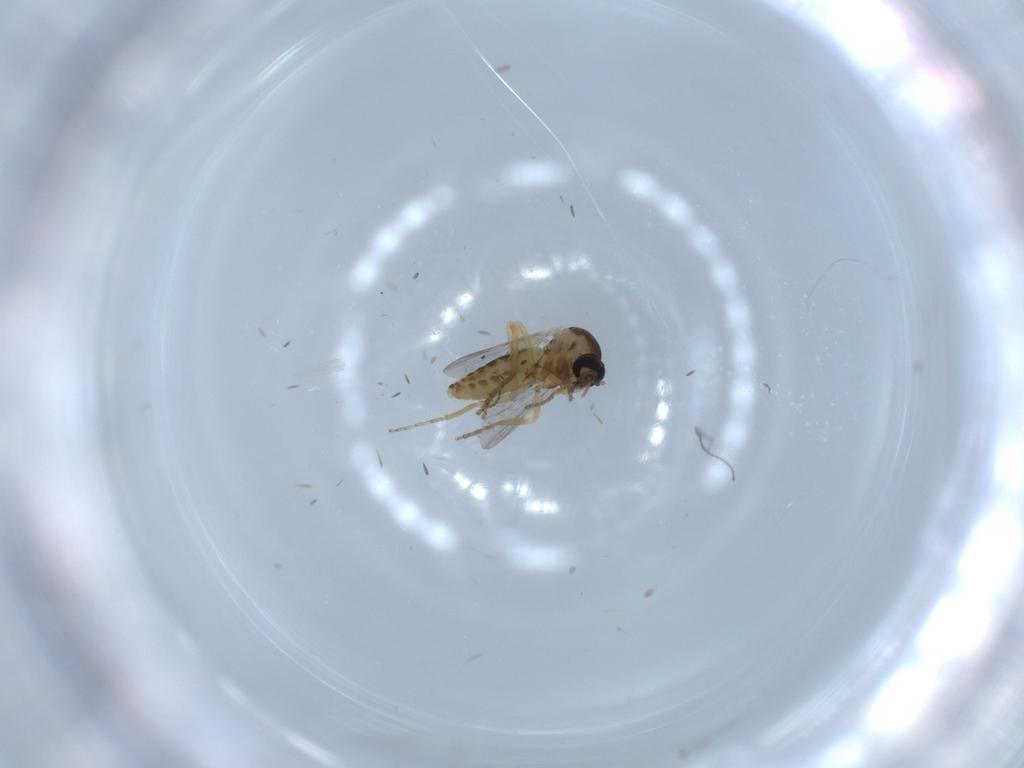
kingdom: Animalia
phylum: Arthropoda
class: Insecta
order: Diptera
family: Ceratopogonidae
